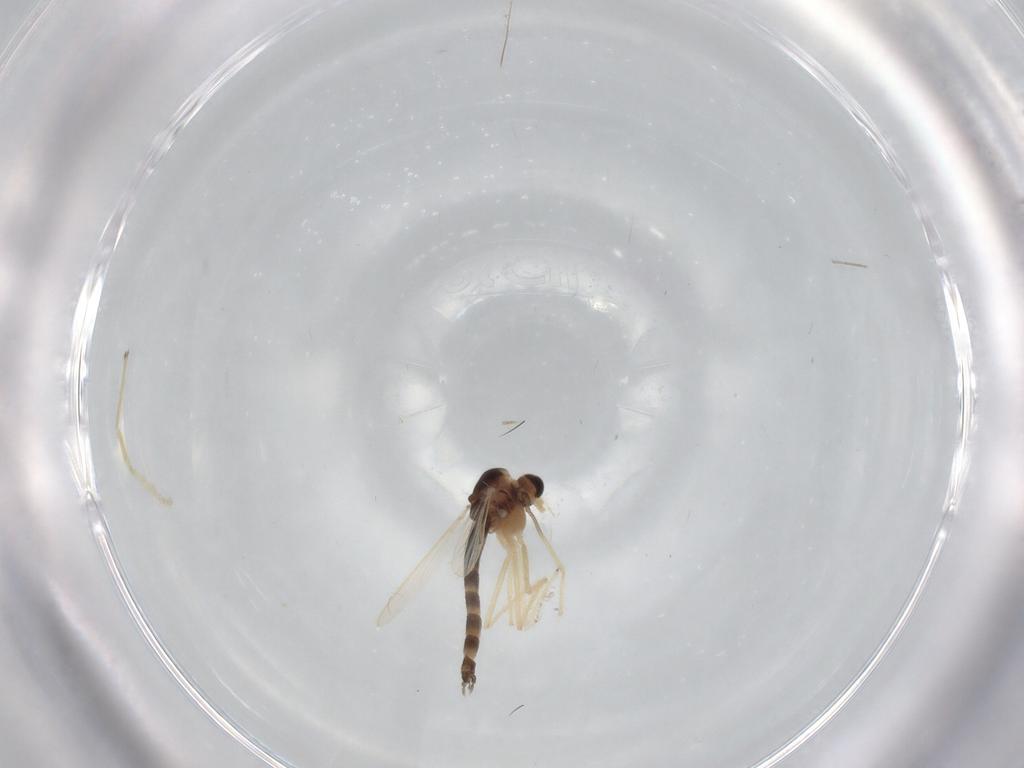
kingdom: Animalia
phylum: Arthropoda
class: Insecta
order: Diptera
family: Chironomidae
